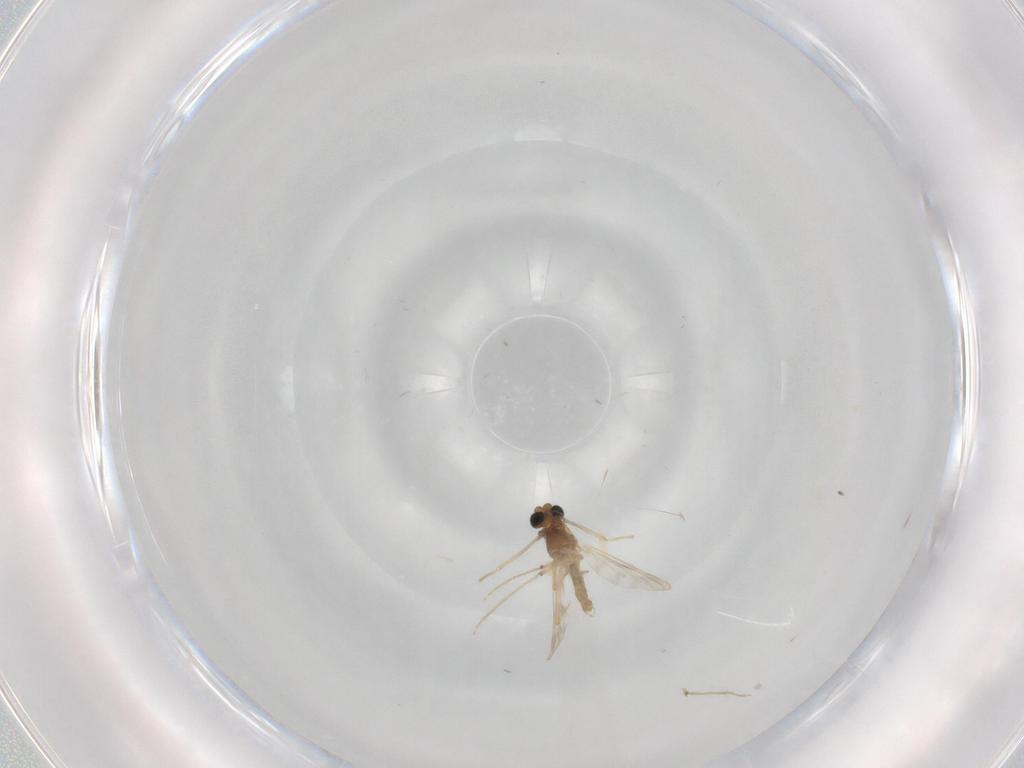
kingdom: Animalia
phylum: Arthropoda
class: Insecta
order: Diptera
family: Chironomidae
